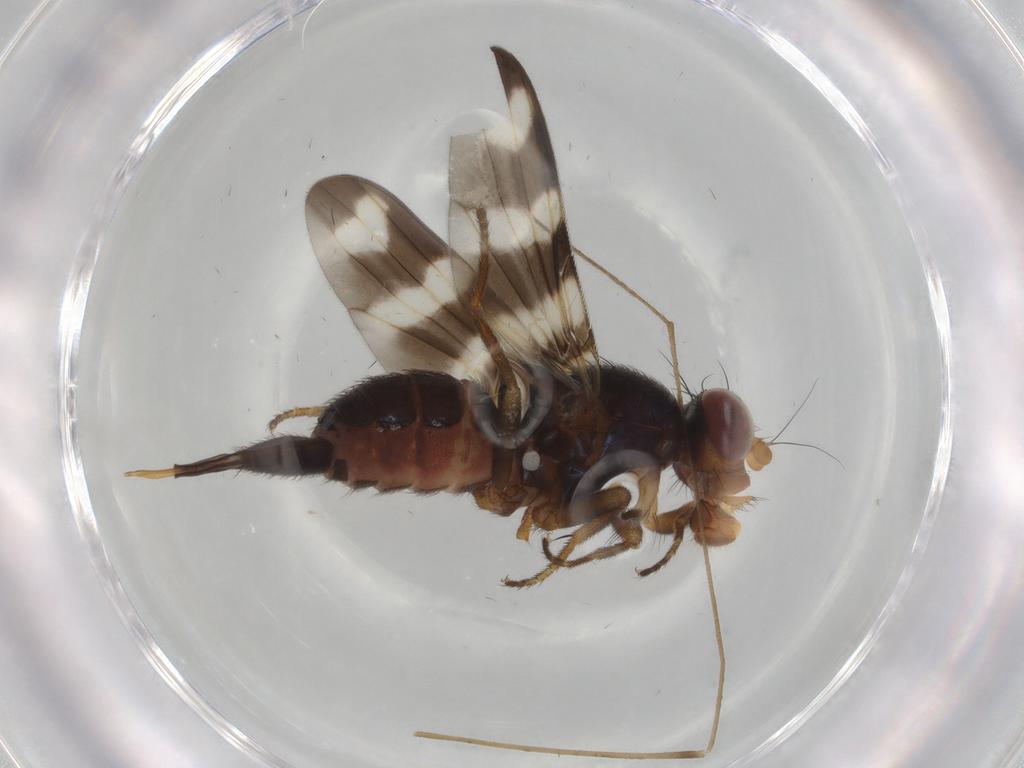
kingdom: Animalia
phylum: Arthropoda
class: Insecta
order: Diptera
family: Ulidiidae
